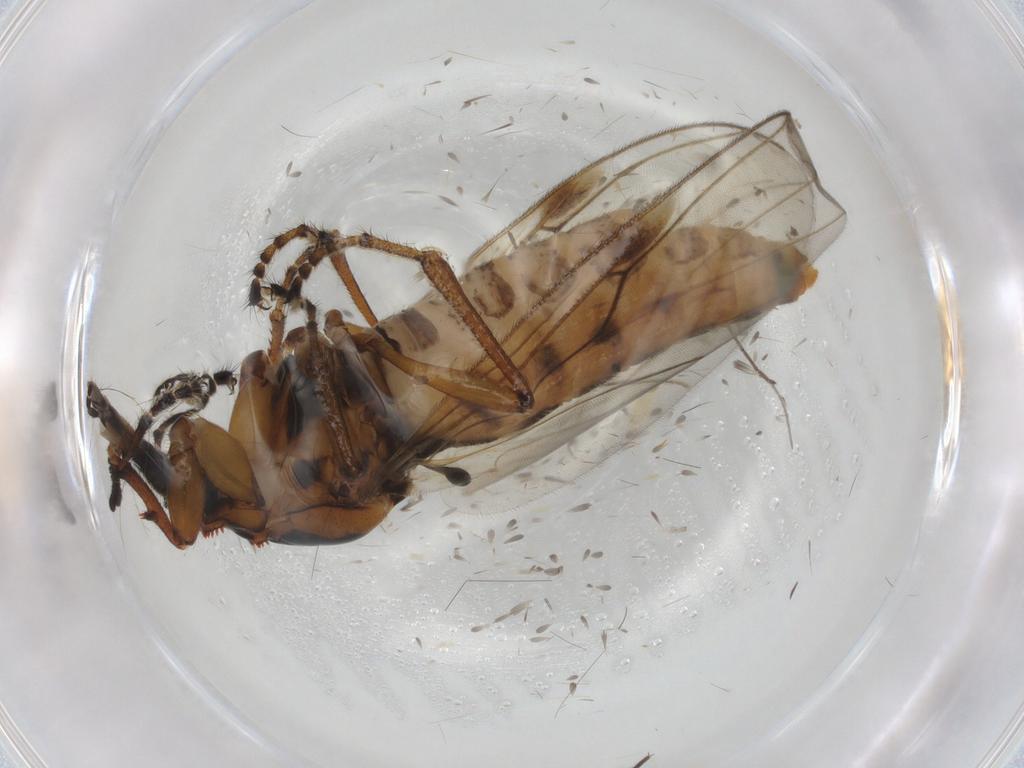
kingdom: Animalia
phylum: Arthropoda
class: Insecta
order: Diptera
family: Bibionidae
